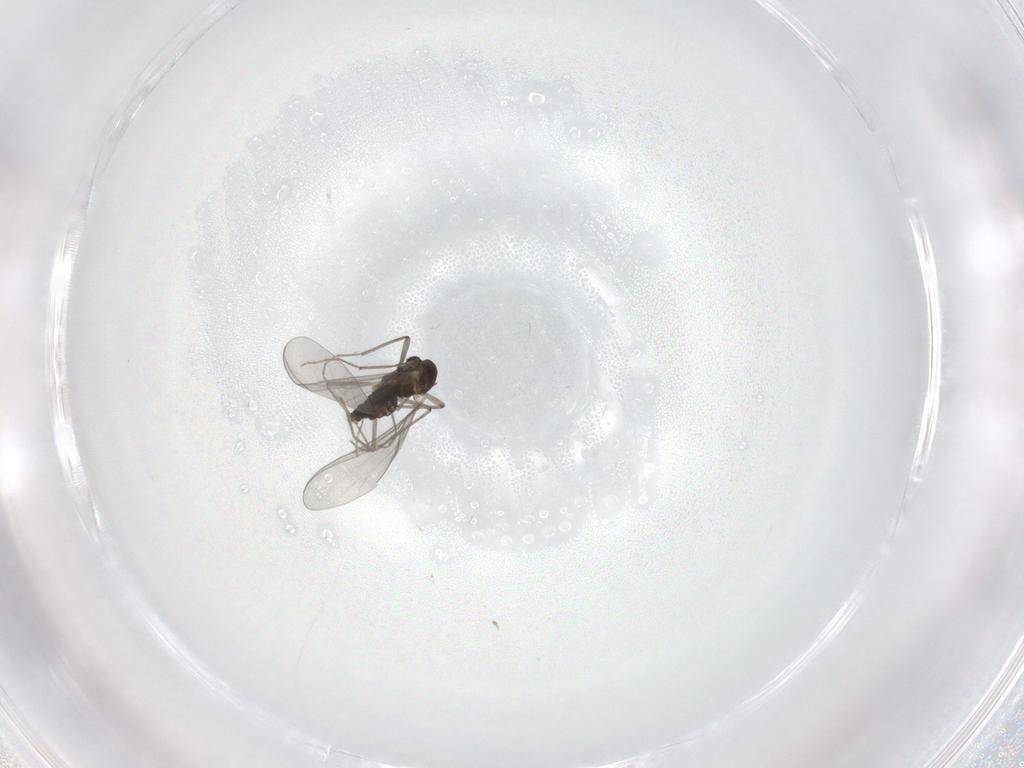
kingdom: Animalia
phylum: Arthropoda
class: Insecta
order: Diptera
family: Chironomidae
